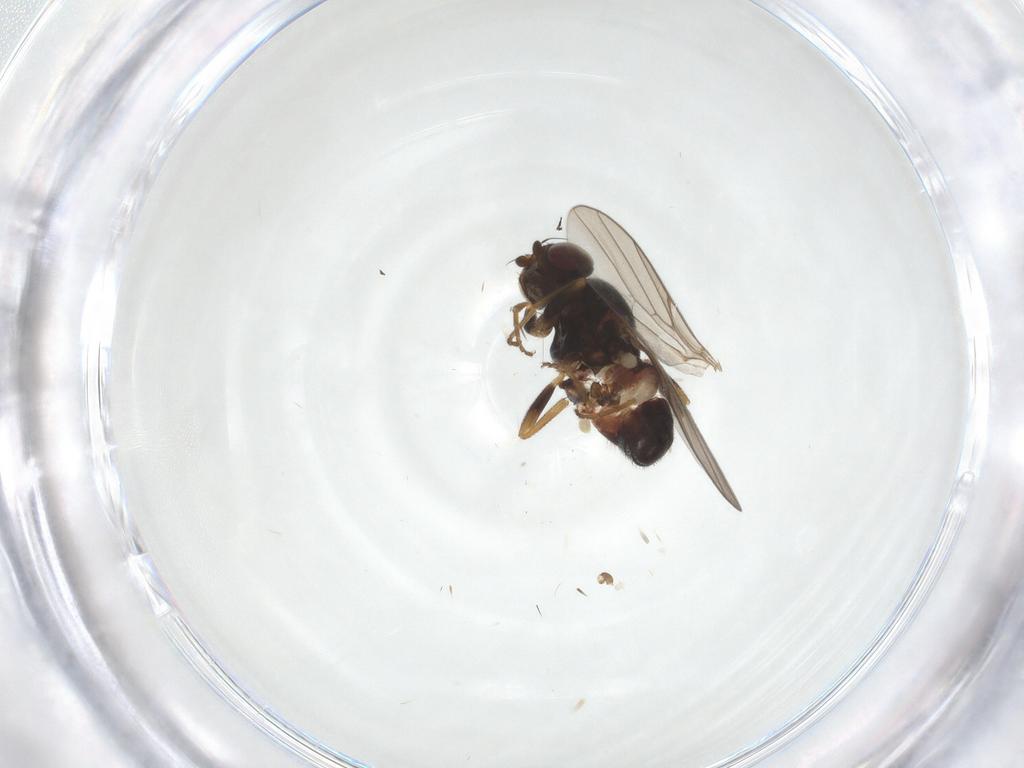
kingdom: Animalia
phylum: Arthropoda
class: Insecta
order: Diptera
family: Chloropidae
